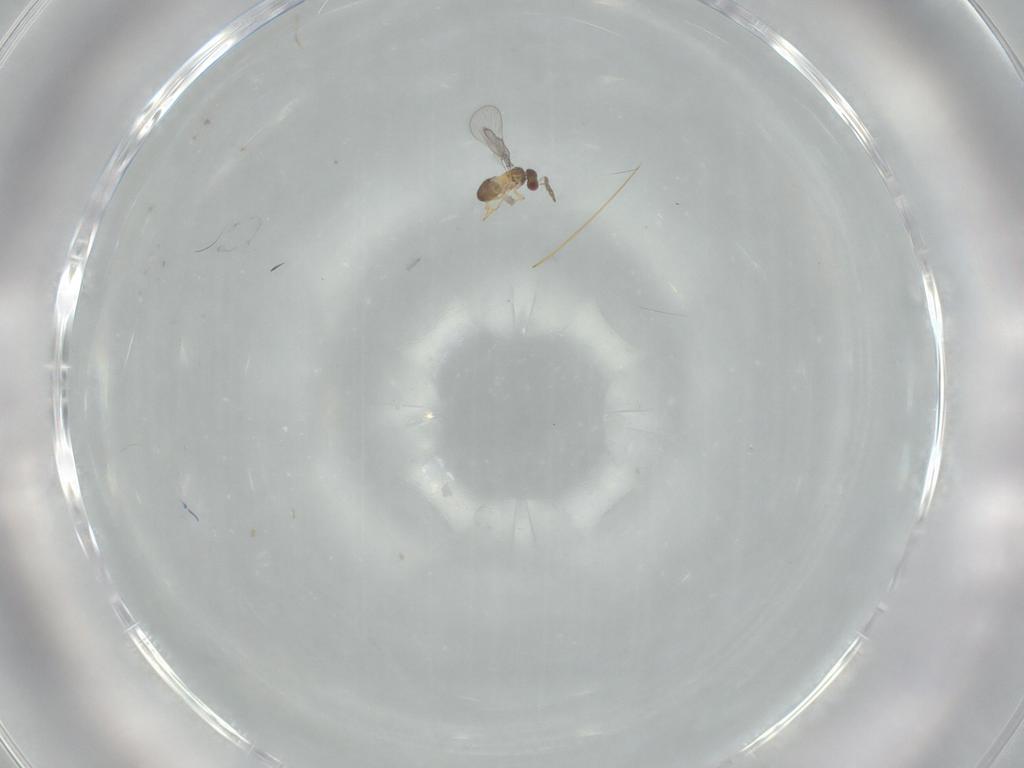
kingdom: Animalia
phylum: Arthropoda
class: Insecta
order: Hymenoptera
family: Trichogrammatidae
